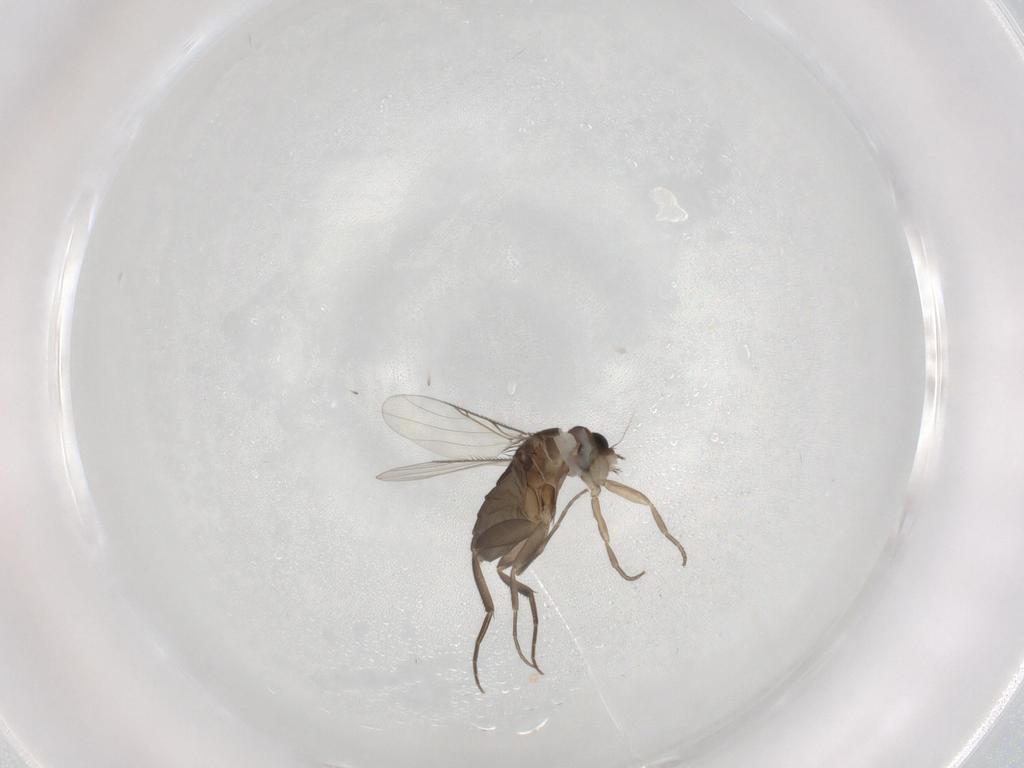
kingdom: Animalia
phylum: Arthropoda
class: Insecta
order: Diptera
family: Phoridae
